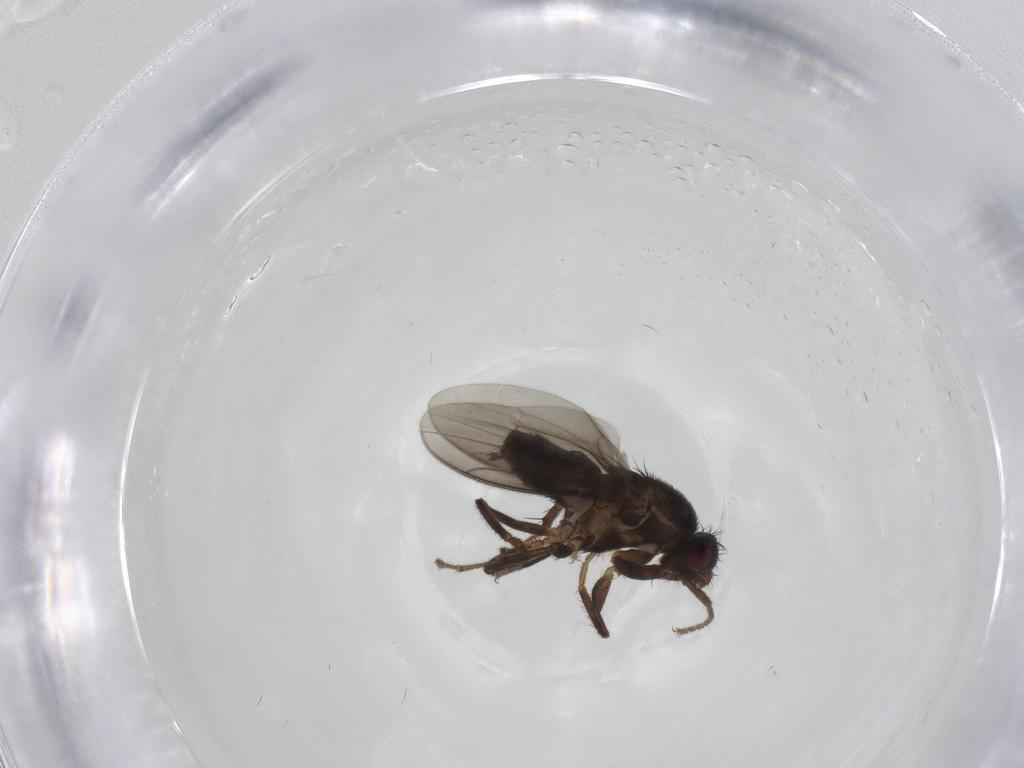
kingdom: Animalia
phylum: Arthropoda
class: Insecta
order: Diptera
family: Sphaeroceridae
